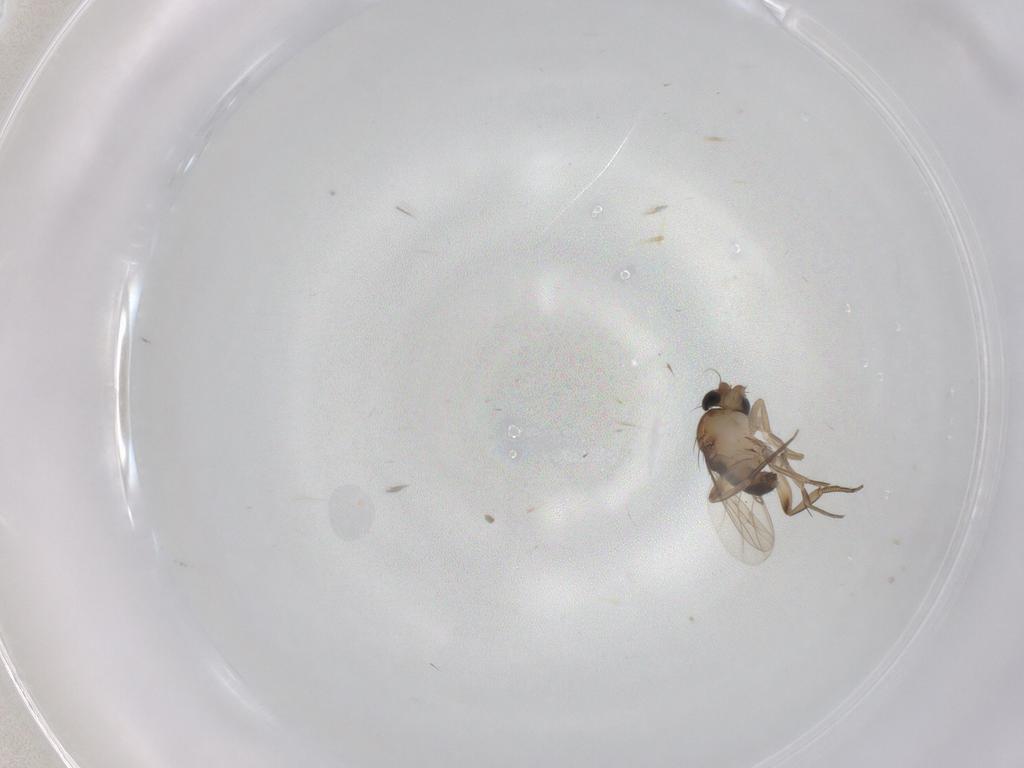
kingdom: Animalia
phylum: Arthropoda
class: Insecta
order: Diptera
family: Phoridae
